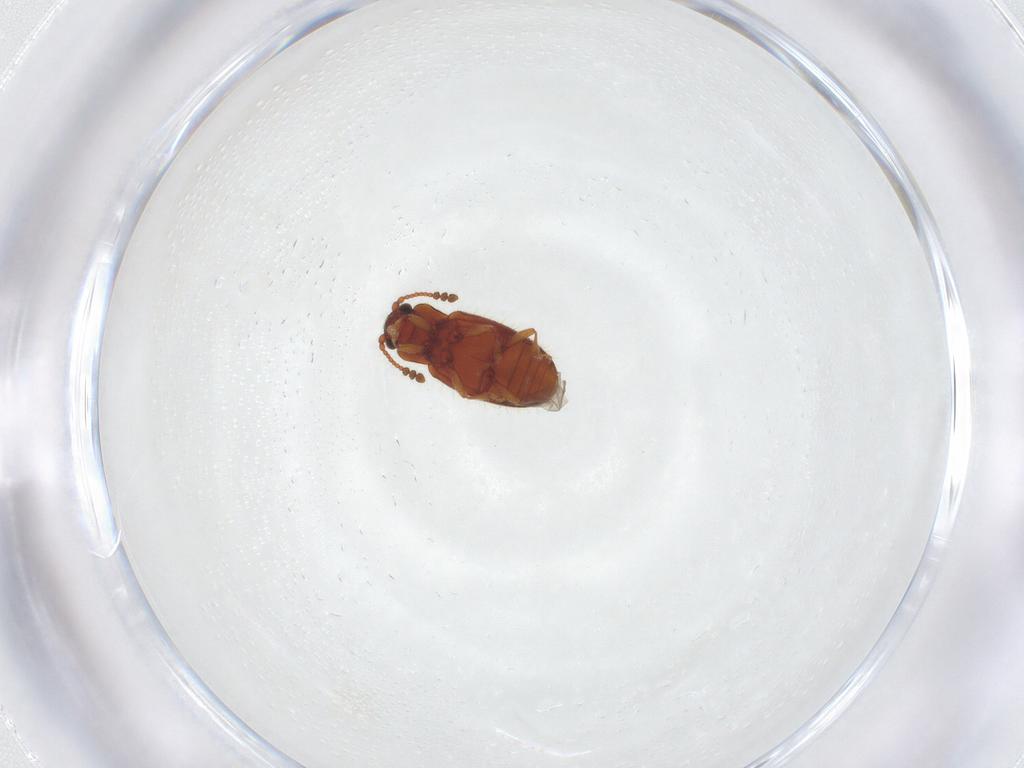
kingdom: Animalia
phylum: Arthropoda
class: Insecta
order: Coleoptera
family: Cryptophagidae
